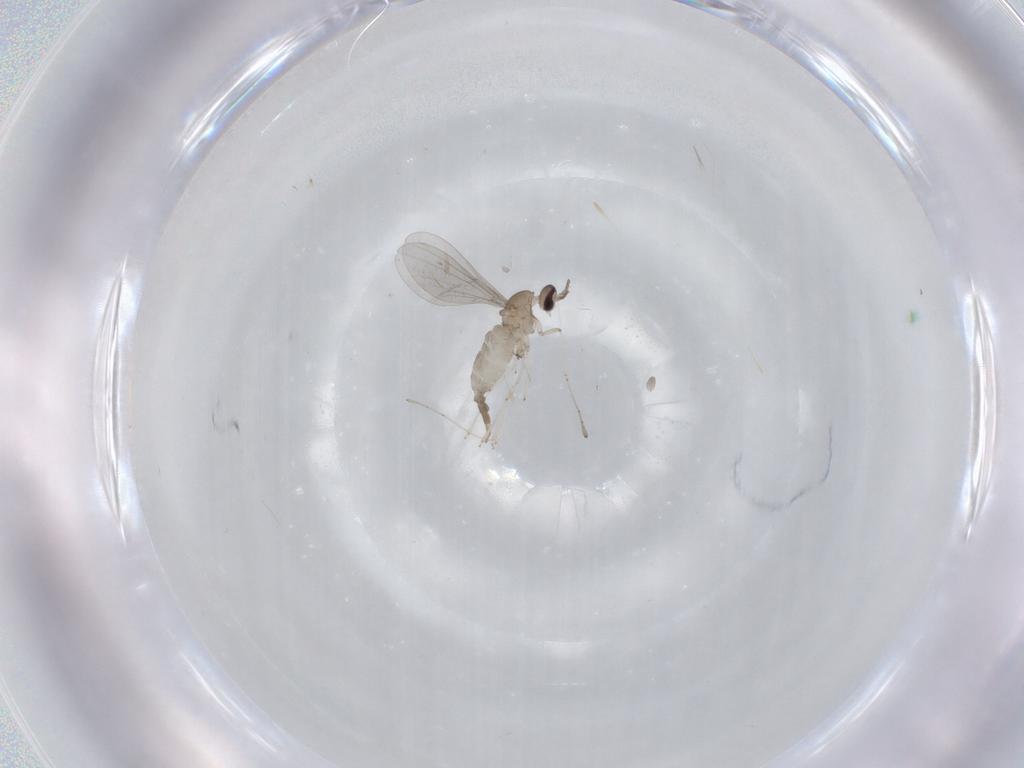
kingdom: Animalia
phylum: Arthropoda
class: Insecta
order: Diptera
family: Cecidomyiidae
